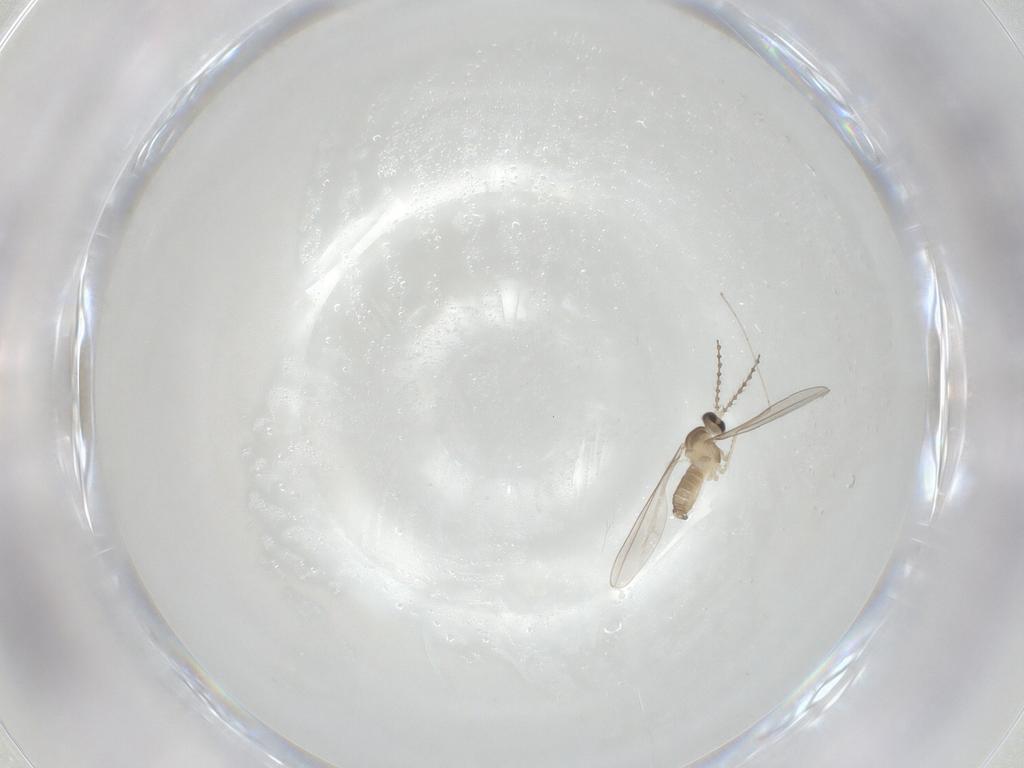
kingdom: Animalia
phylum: Arthropoda
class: Insecta
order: Diptera
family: Cecidomyiidae
